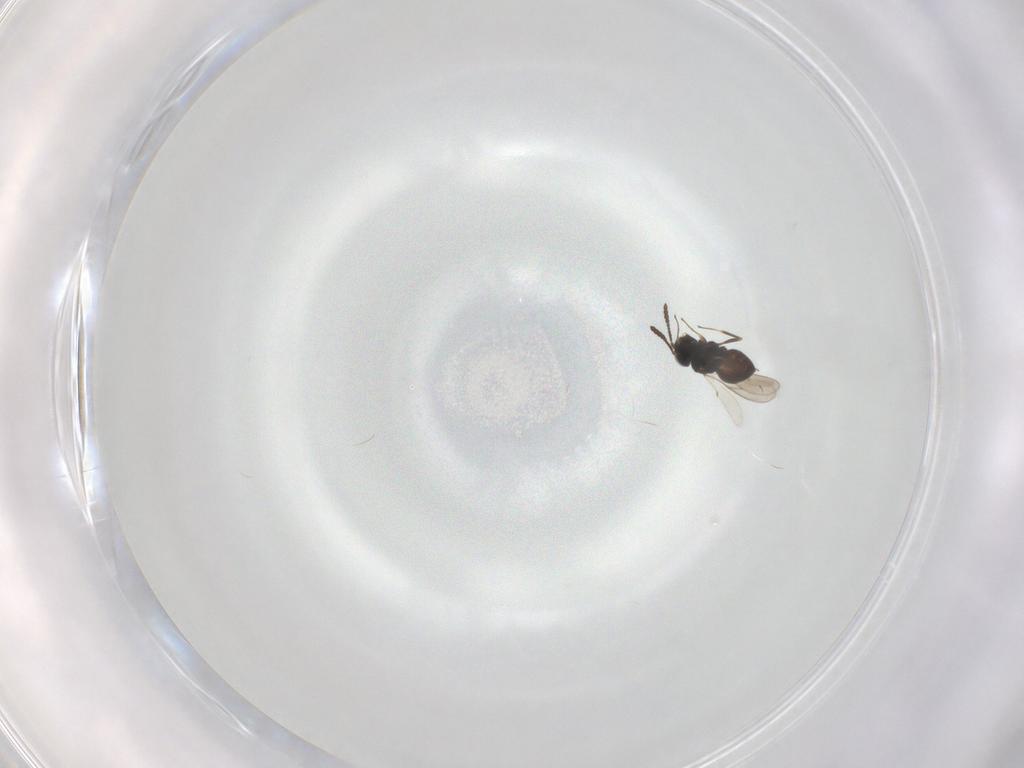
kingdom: Animalia
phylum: Arthropoda
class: Insecta
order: Hymenoptera
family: Scelionidae
